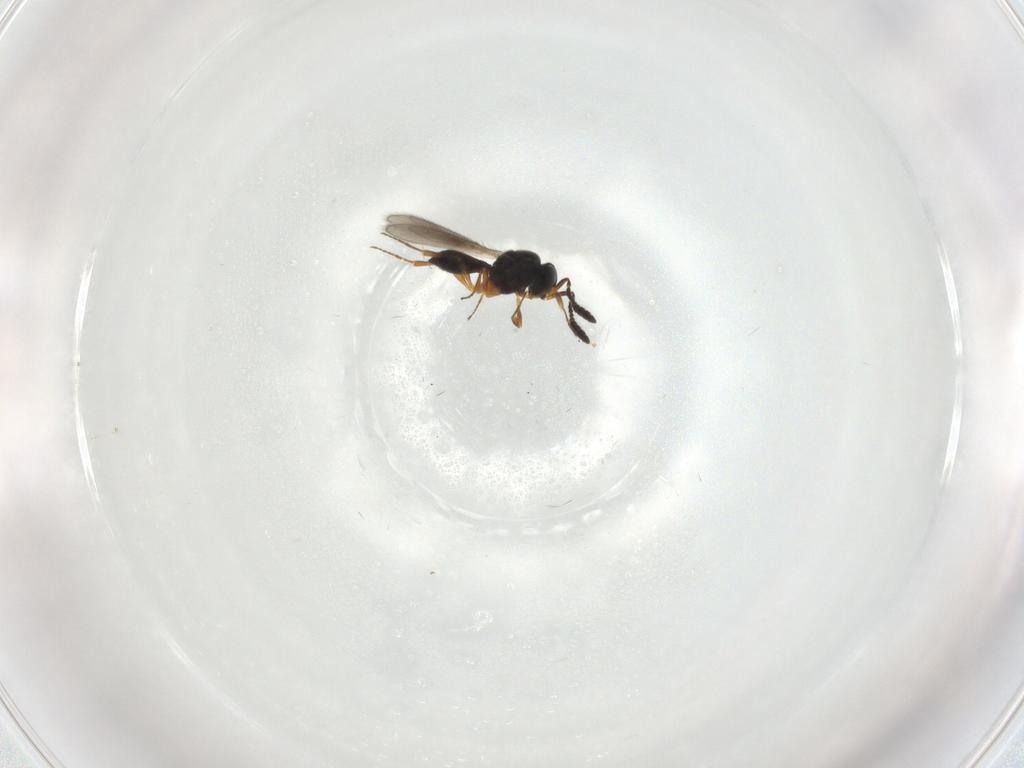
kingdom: Animalia
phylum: Arthropoda
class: Insecta
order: Hymenoptera
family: Scelionidae
